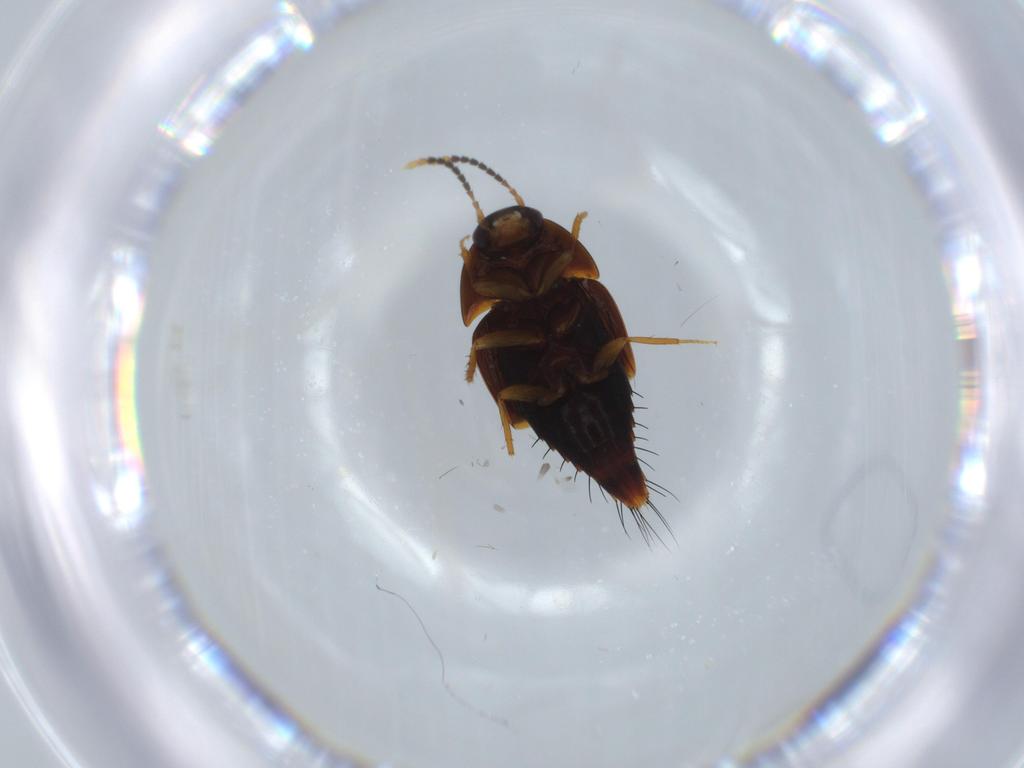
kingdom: Animalia
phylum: Arthropoda
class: Insecta
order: Coleoptera
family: Staphylinidae
